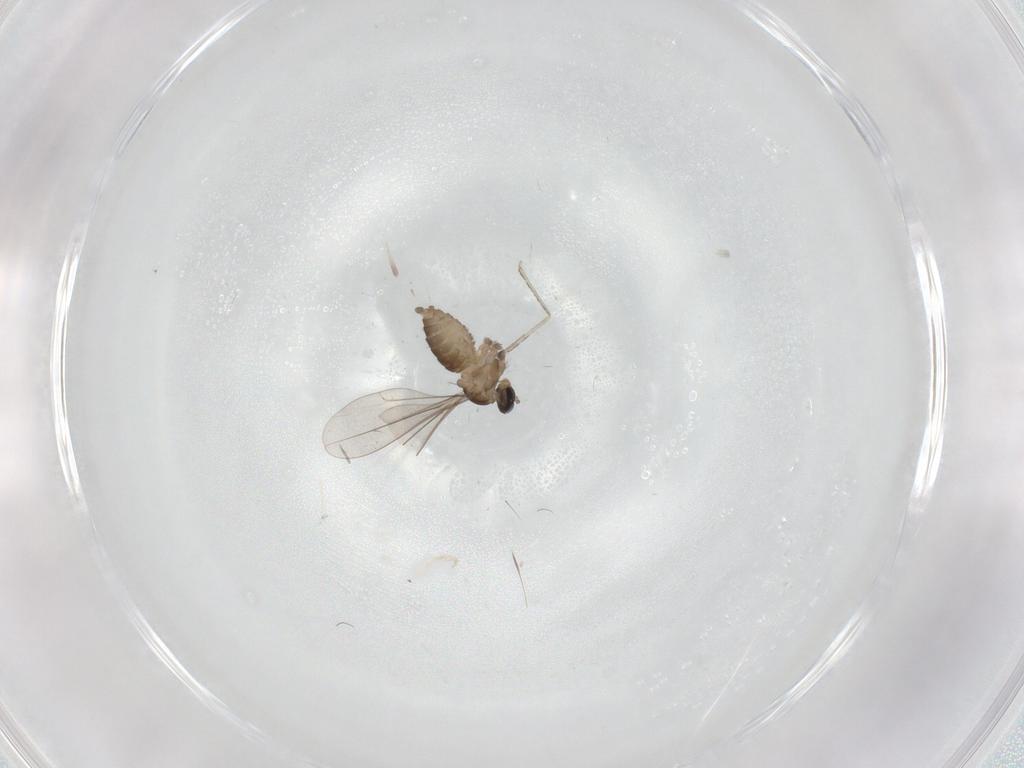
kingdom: Animalia
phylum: Arthropoda
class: Insecta
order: Diptera
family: Cecidomyiidae
